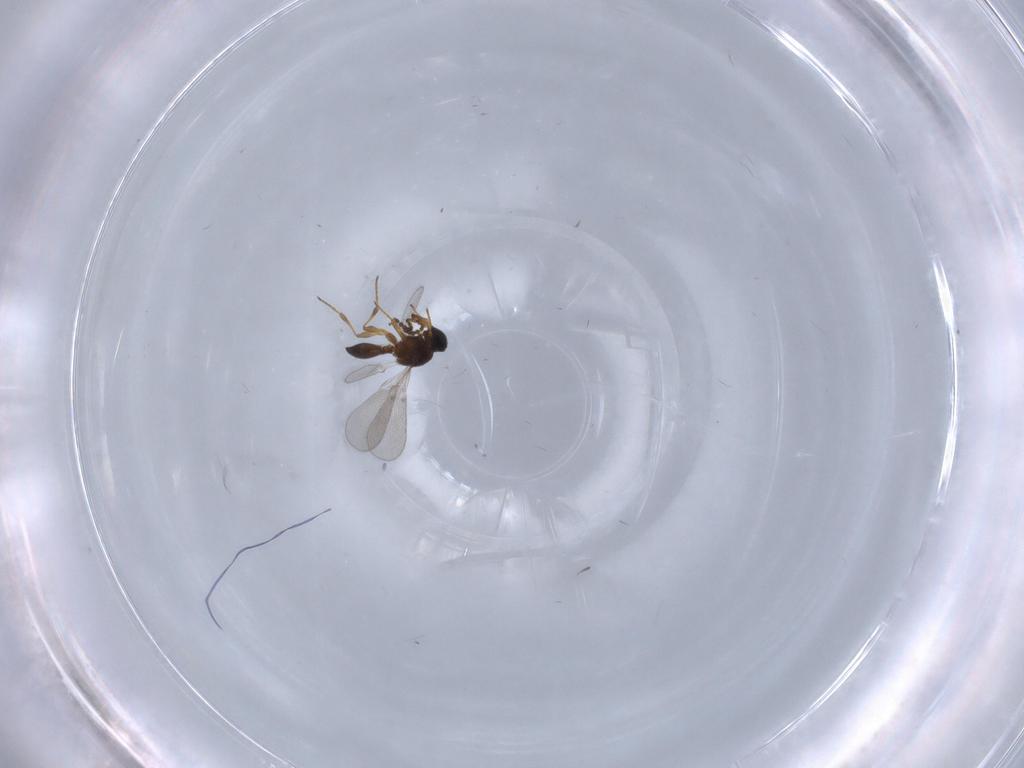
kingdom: Animalia
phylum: Arthropoda
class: Insecta
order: Hymenoptera
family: Platygastridae
